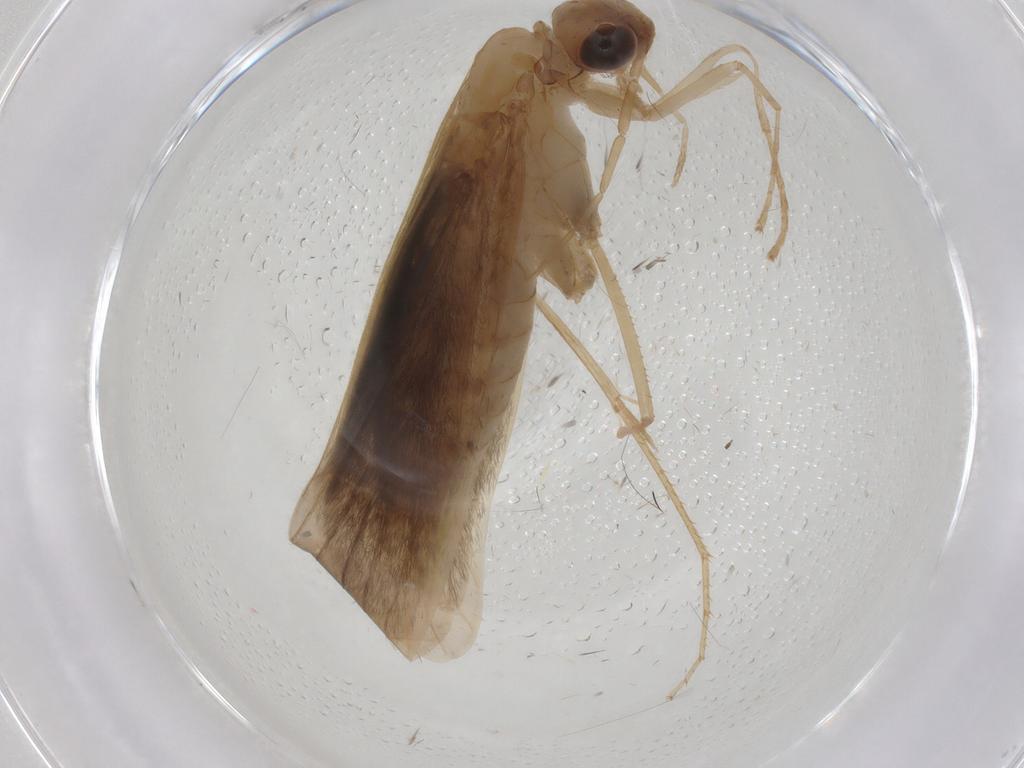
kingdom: Animalia
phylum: Arthropoda
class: Insecta
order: Trichoptera
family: Leptoceridae
